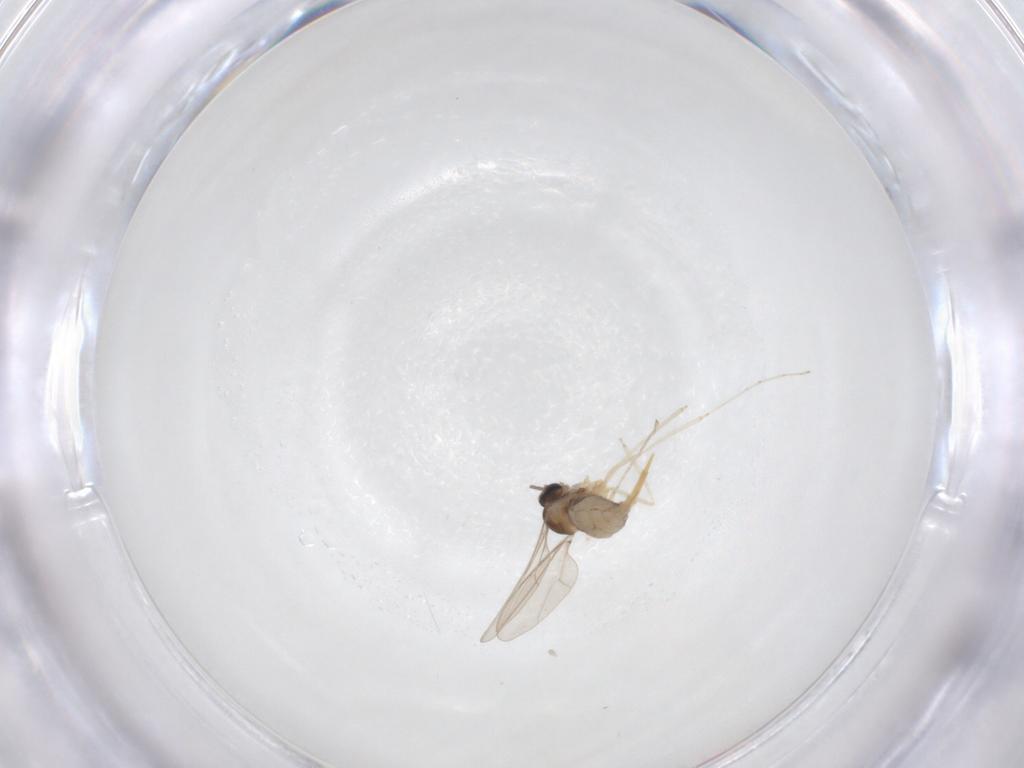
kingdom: Animalia
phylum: Arthropoda
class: Insecta
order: Diptera
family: Cecidomyiidae
